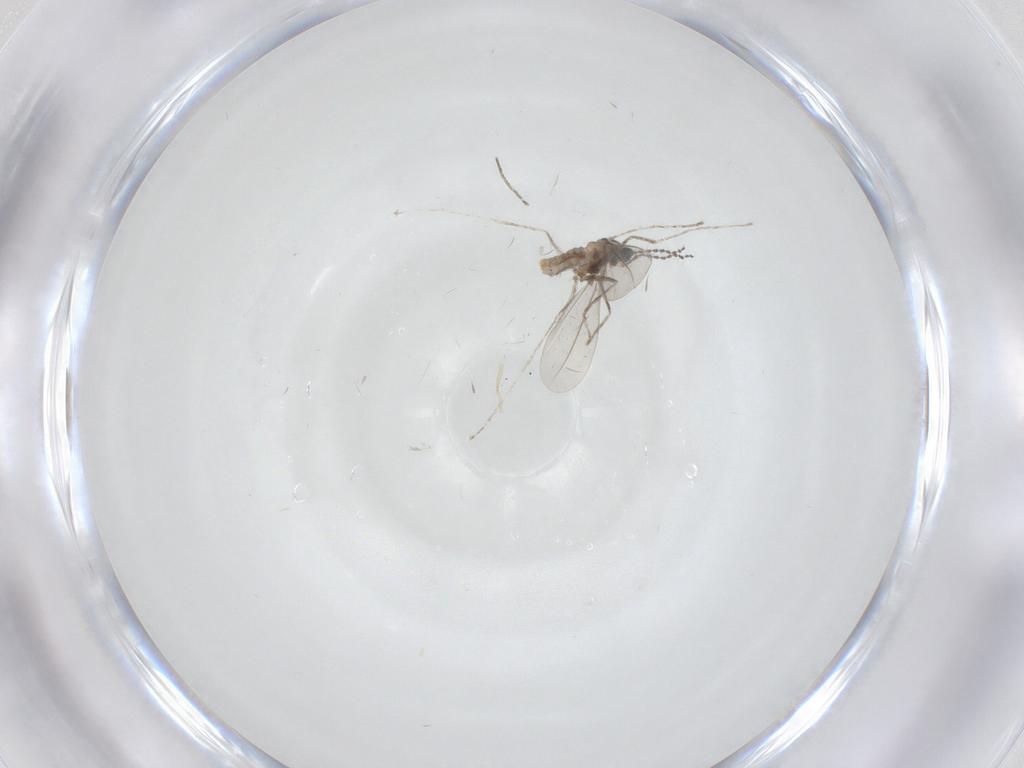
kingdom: Animalia
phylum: Arthropoda
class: Insecta
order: Diptera
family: Cecidomyiidae
